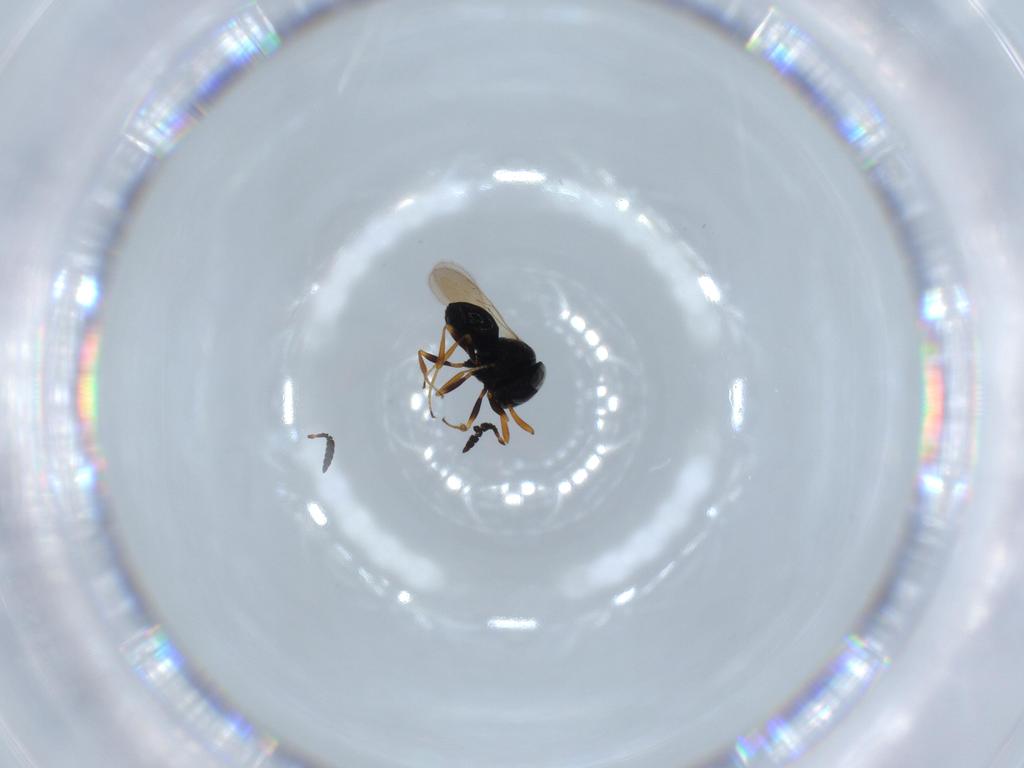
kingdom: Animalia
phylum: Arthropoda
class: Insecta
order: Hymenoptera
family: Scelionidae
